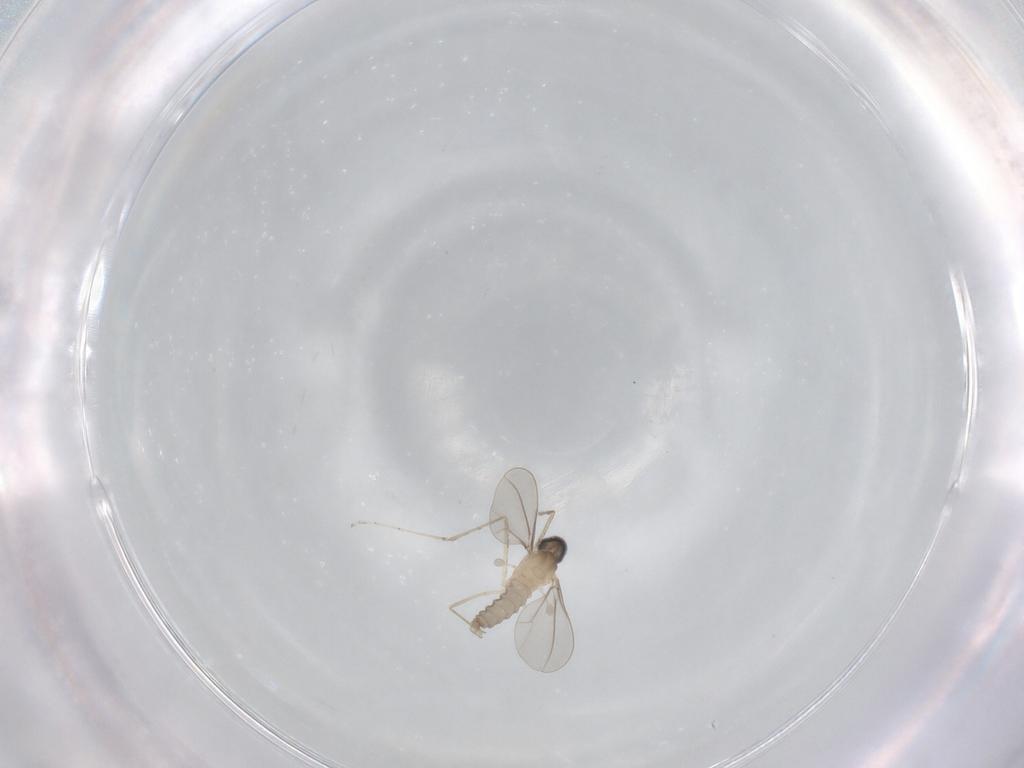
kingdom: Animalia
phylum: Arthropoda
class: Insecta
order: Diptera
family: Cecidomyiidae
